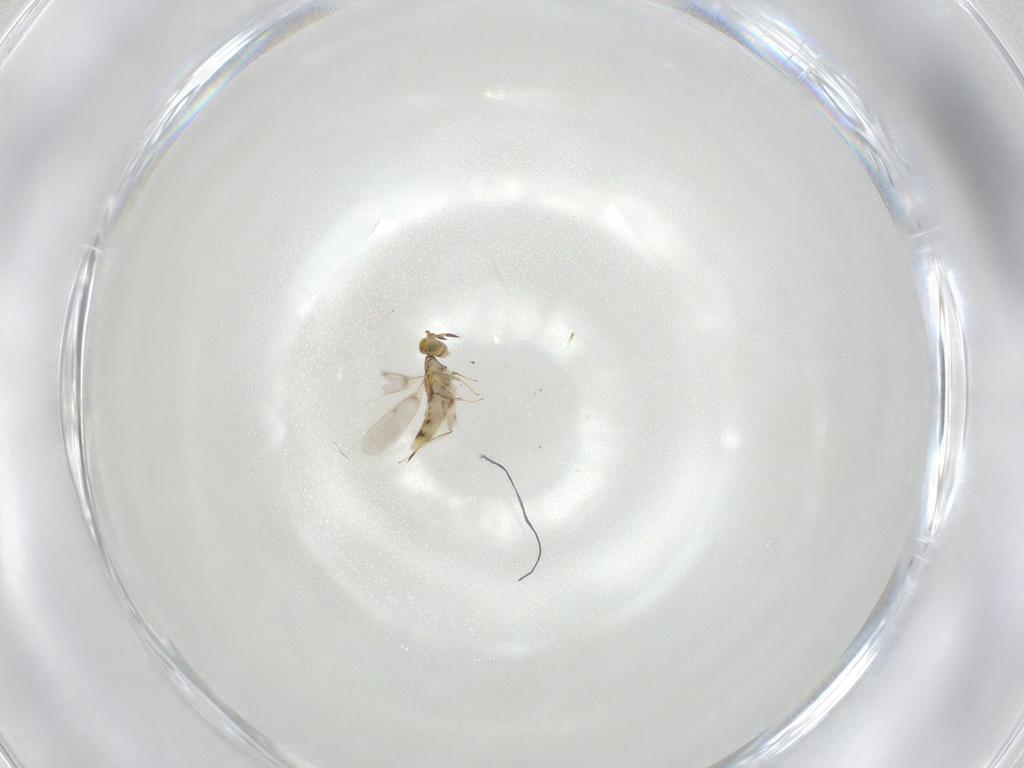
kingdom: Animalia
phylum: Arthropoda
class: Insecta
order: Hymenoptera
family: Aphelinidae
